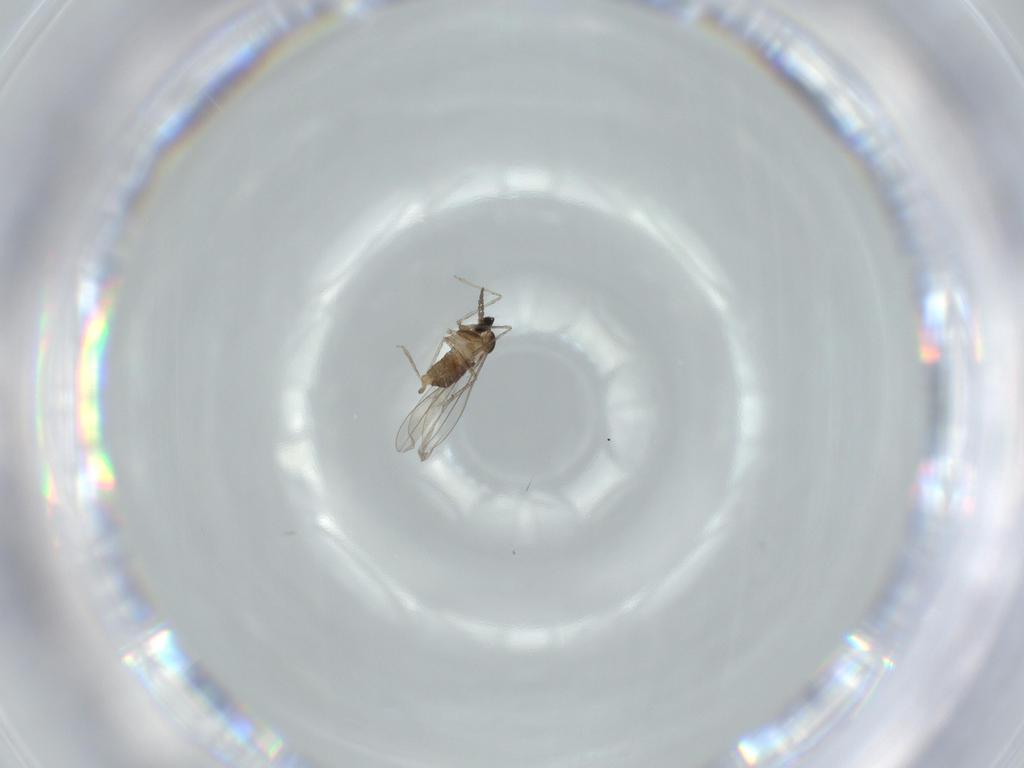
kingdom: Animalia
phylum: Arthropoda
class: Insecta
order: Diptera
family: Cecidomyiidae
